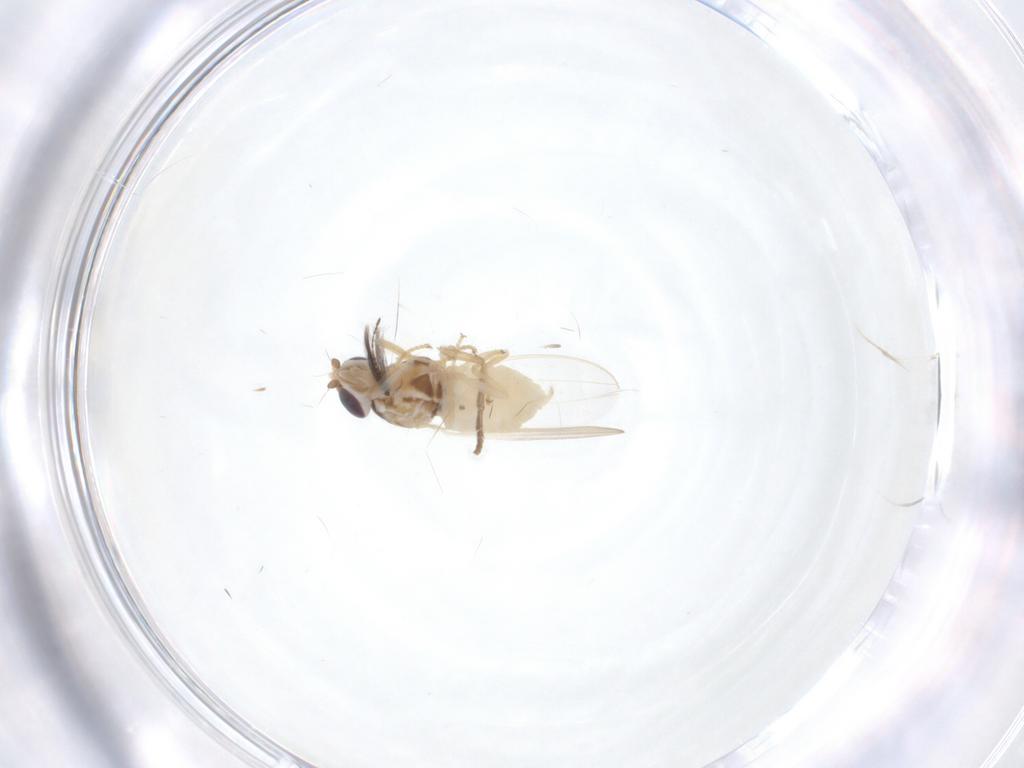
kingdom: Animalia
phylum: Arthropoda
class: Insecta
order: Diptera
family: Chloropidae
